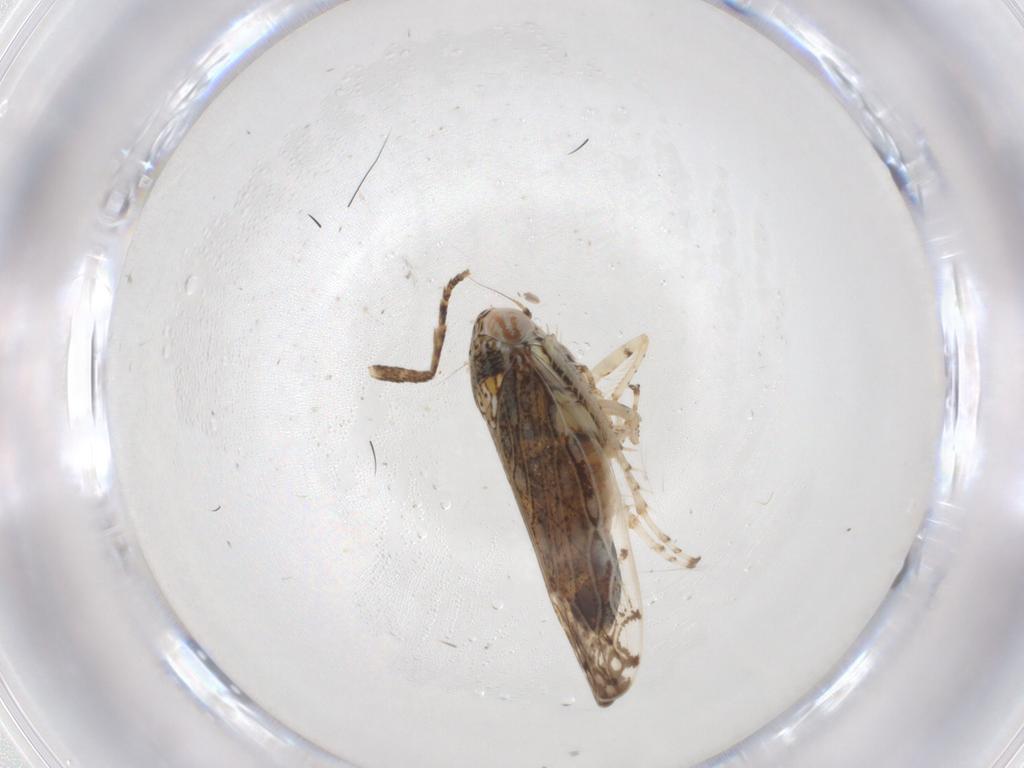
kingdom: Animalia
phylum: Arthropoda
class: Insecta
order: Hemiptera
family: Cicadellidae
